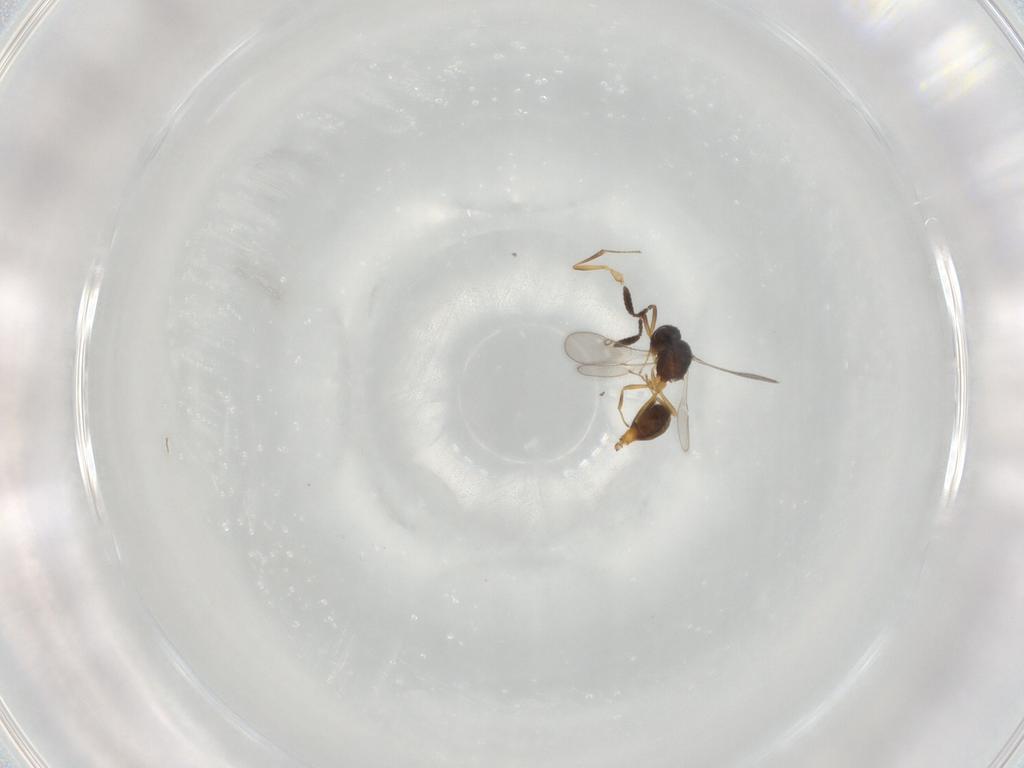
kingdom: Animalia
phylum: Arthropoda
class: Insecta
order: Hymenoptera
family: Scelionidae
